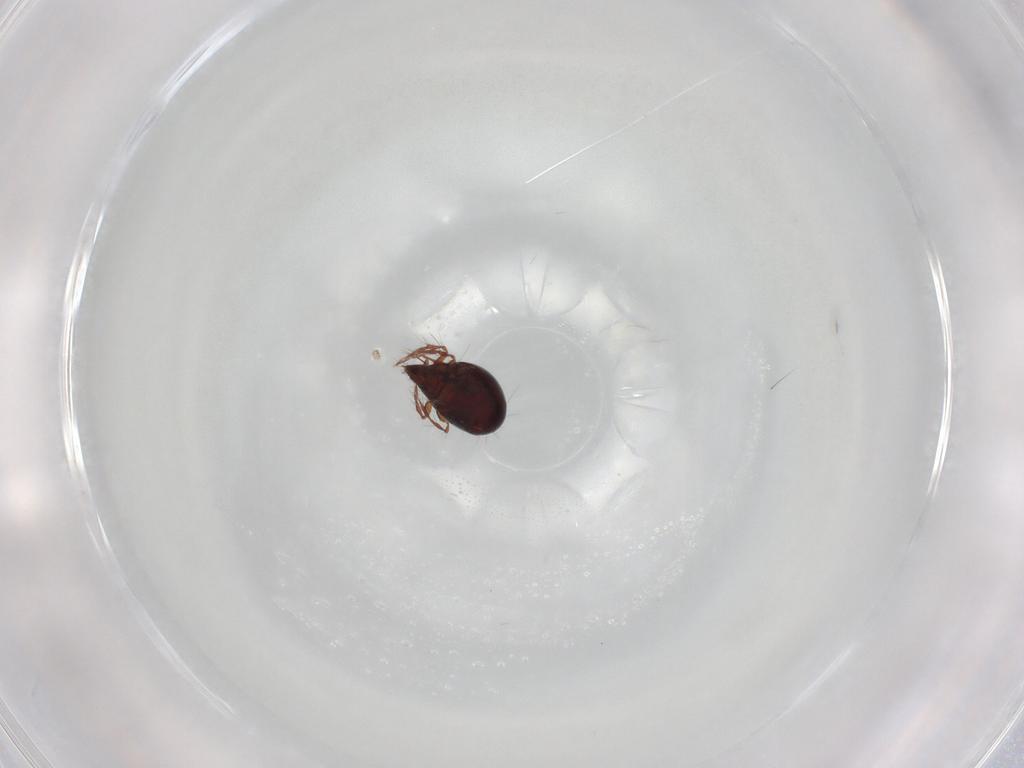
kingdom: Animalia
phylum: Arthropoda
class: Arachnida
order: Sarcoptiformes
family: Ceratoppiidae
